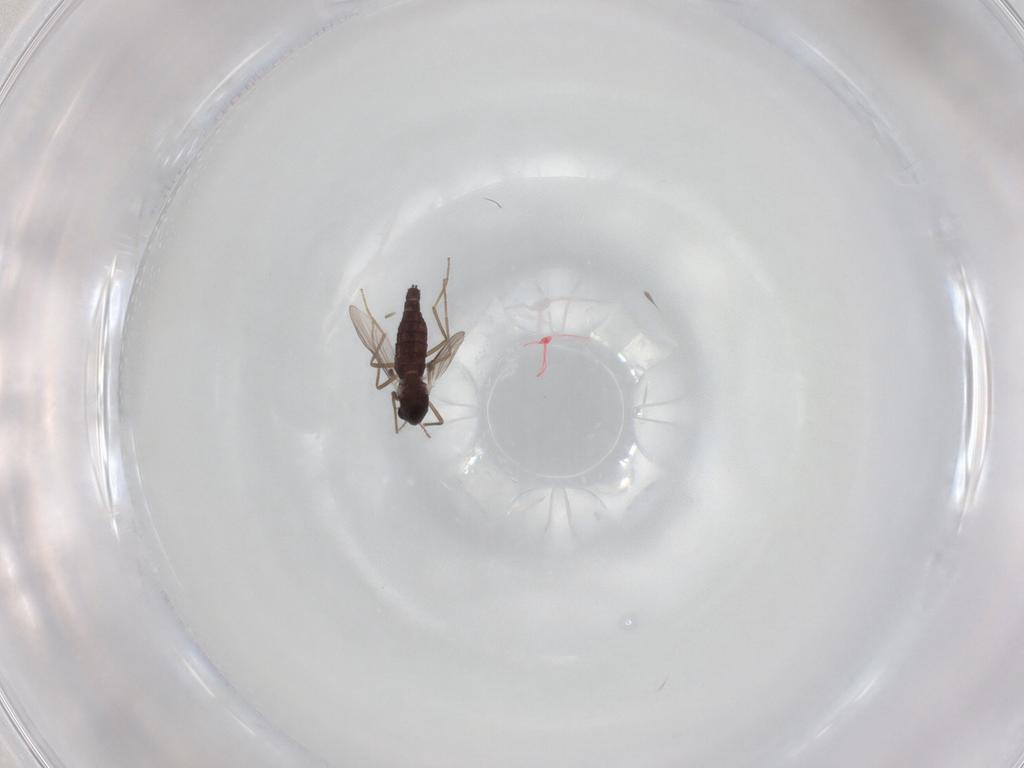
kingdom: Animalia
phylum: Arthropoda
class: Insecta
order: Diptera
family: Chironomidae
